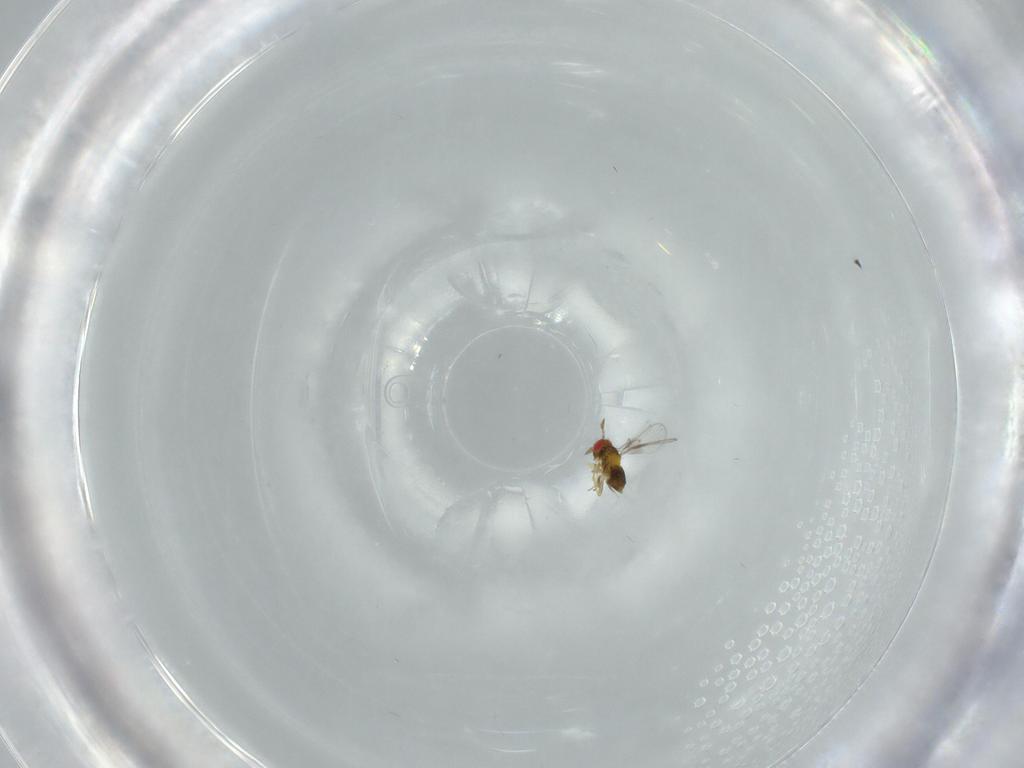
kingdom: Animalia
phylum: Arthropoda
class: Insecta
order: Hymenoptera
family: Trichogrammatidae
